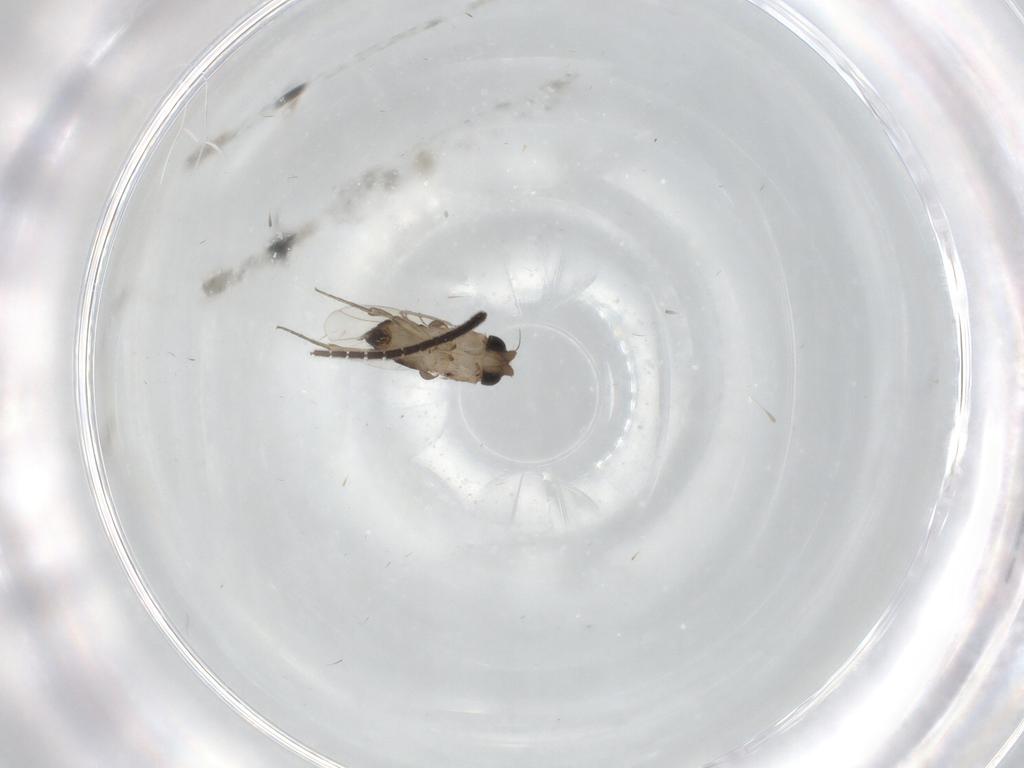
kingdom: Animalia
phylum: Arthropoda
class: Insecta
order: Diptera
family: Phoridae
